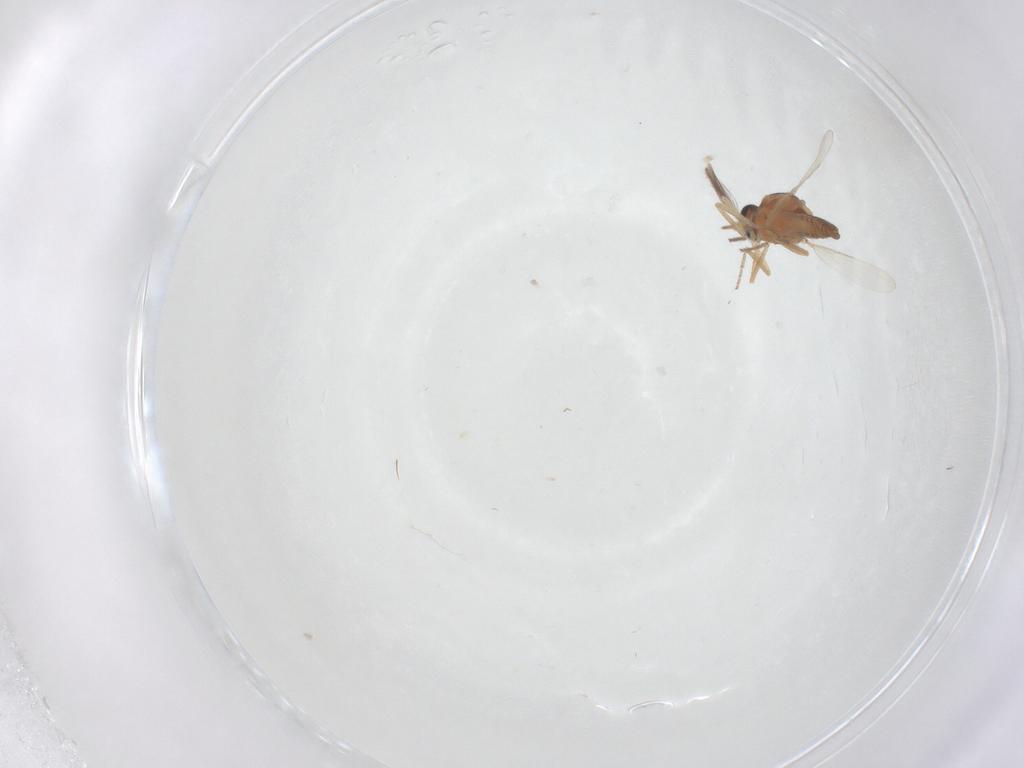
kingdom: Animalia
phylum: Arthropoda
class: Insecta
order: Diptera
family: Ceratopogonidae
